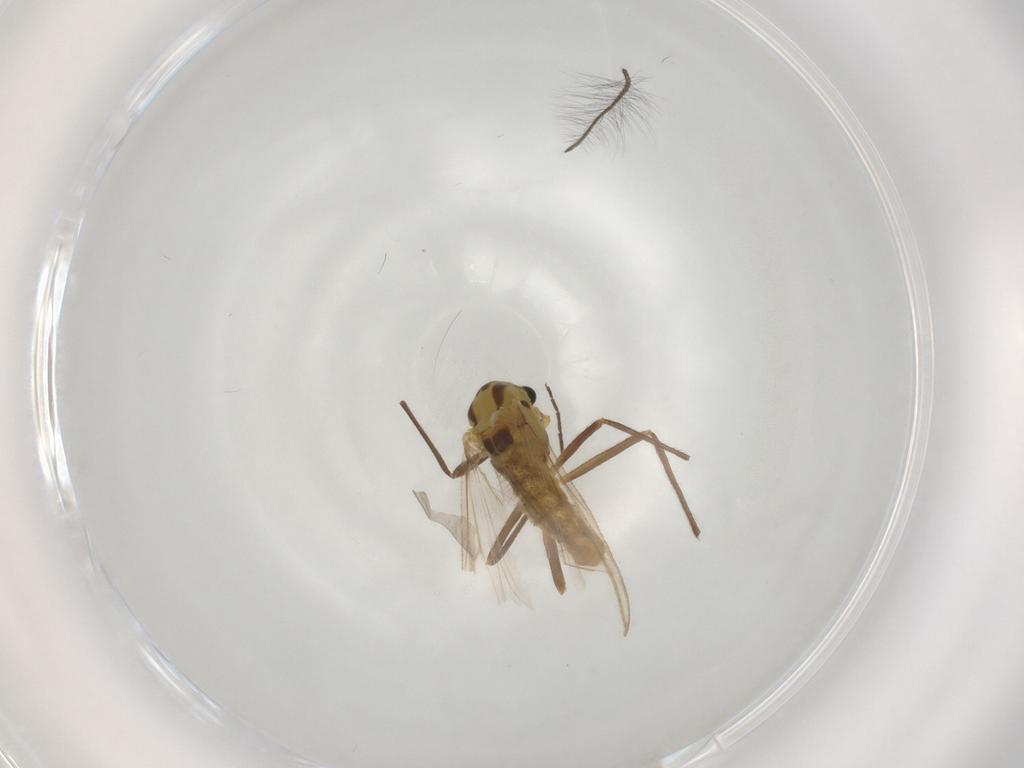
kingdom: Animalia
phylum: Arthropoda
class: Insecta
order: Diptera
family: Chironomidae
